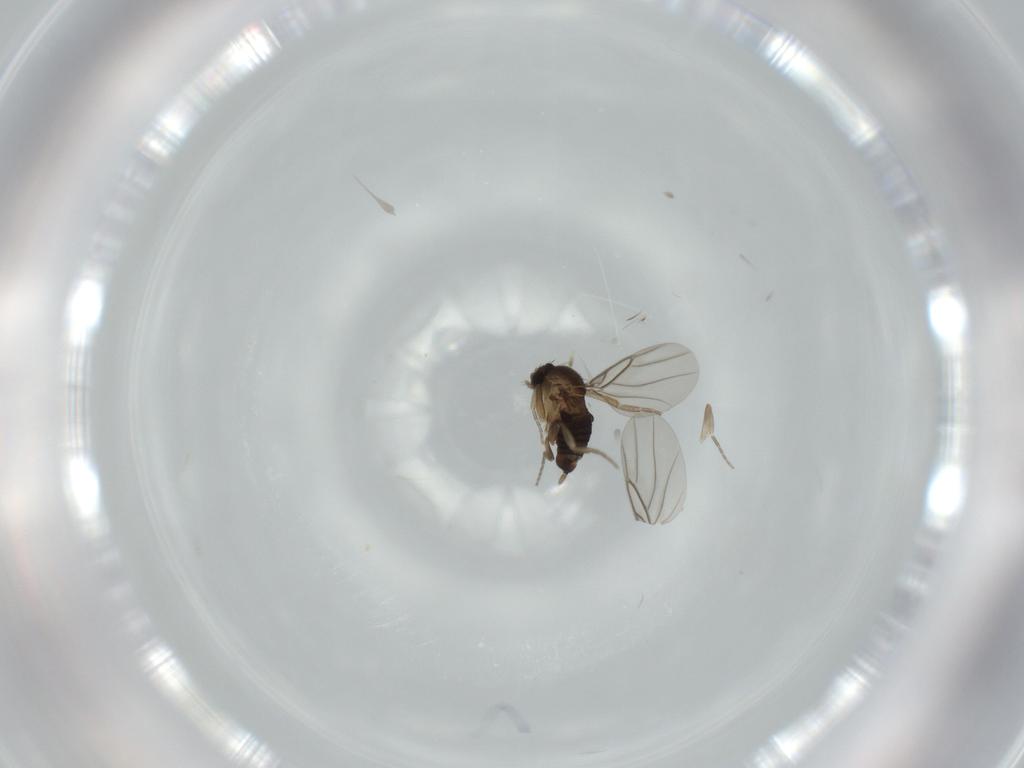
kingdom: Animalia
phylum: Arthropoda
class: Insecta
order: Diptera
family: Phoridae
